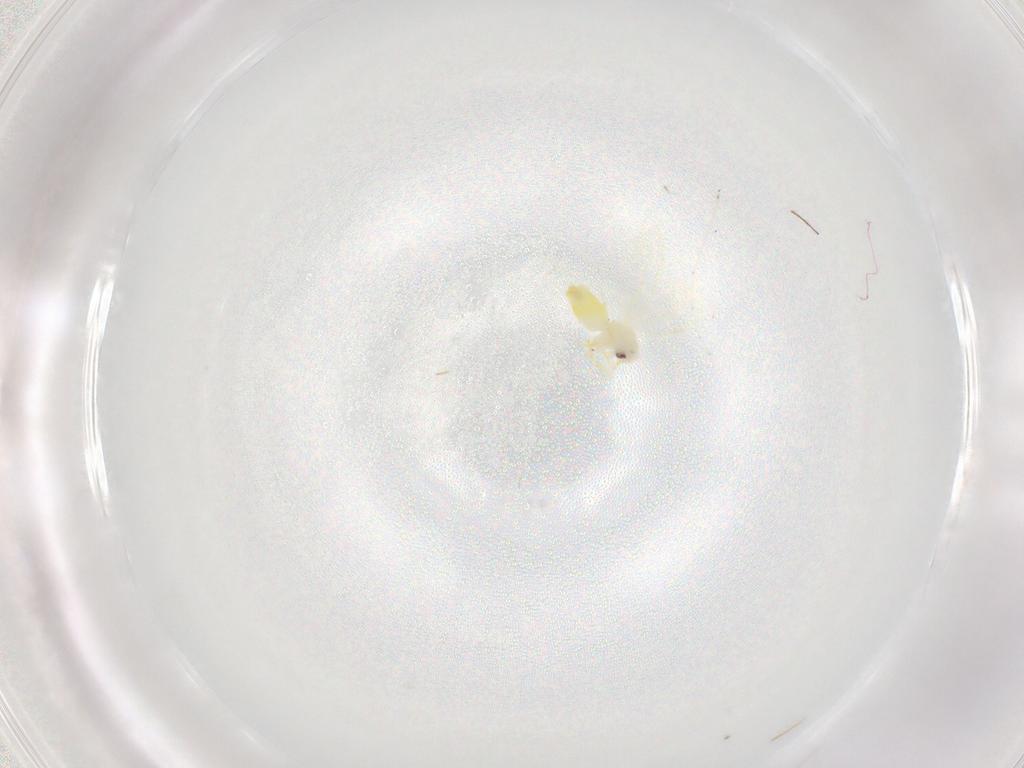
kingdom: Animalia
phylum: Arthropoda
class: Insecta
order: Hemiptera
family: Aleyrodidae
